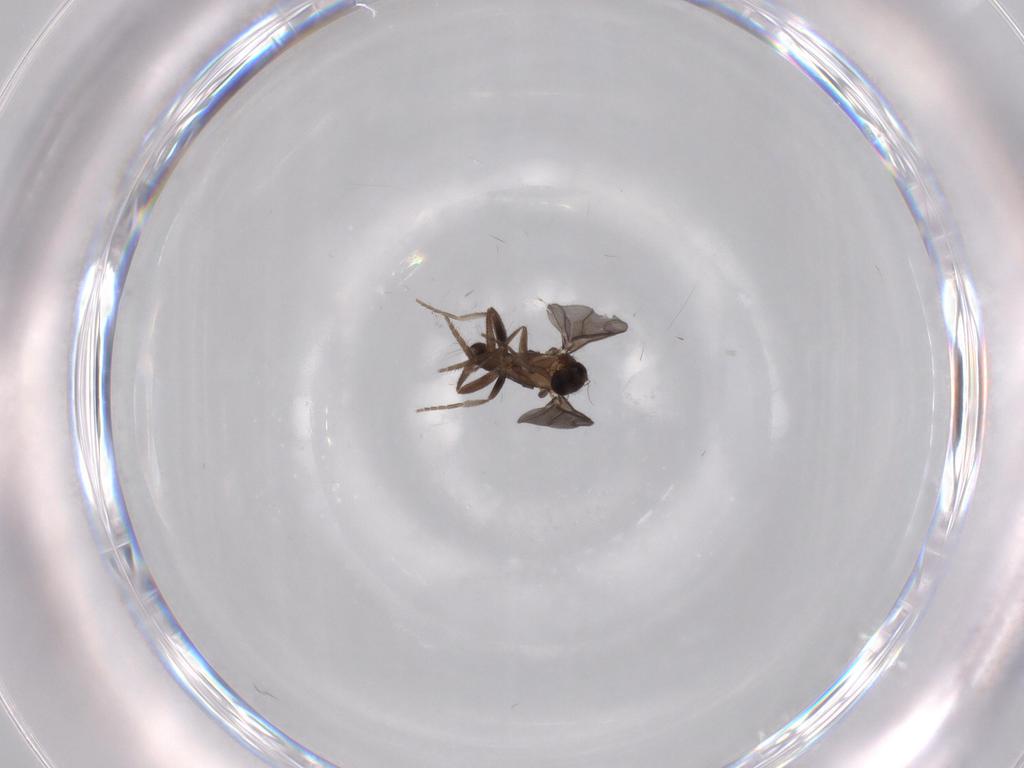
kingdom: Animalia
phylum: Arthropoda
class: Insecta
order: Diptera
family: Phoridae
